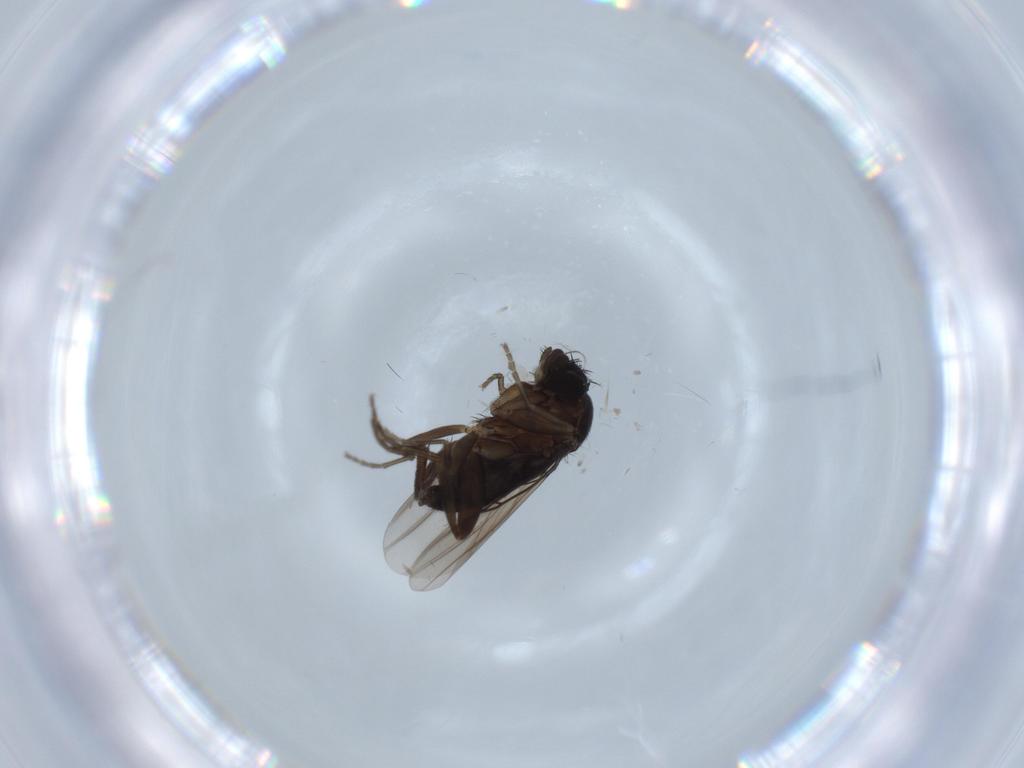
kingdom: Animalia
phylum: Arthropoda
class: Insecta
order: Diptera
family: Phoridae
